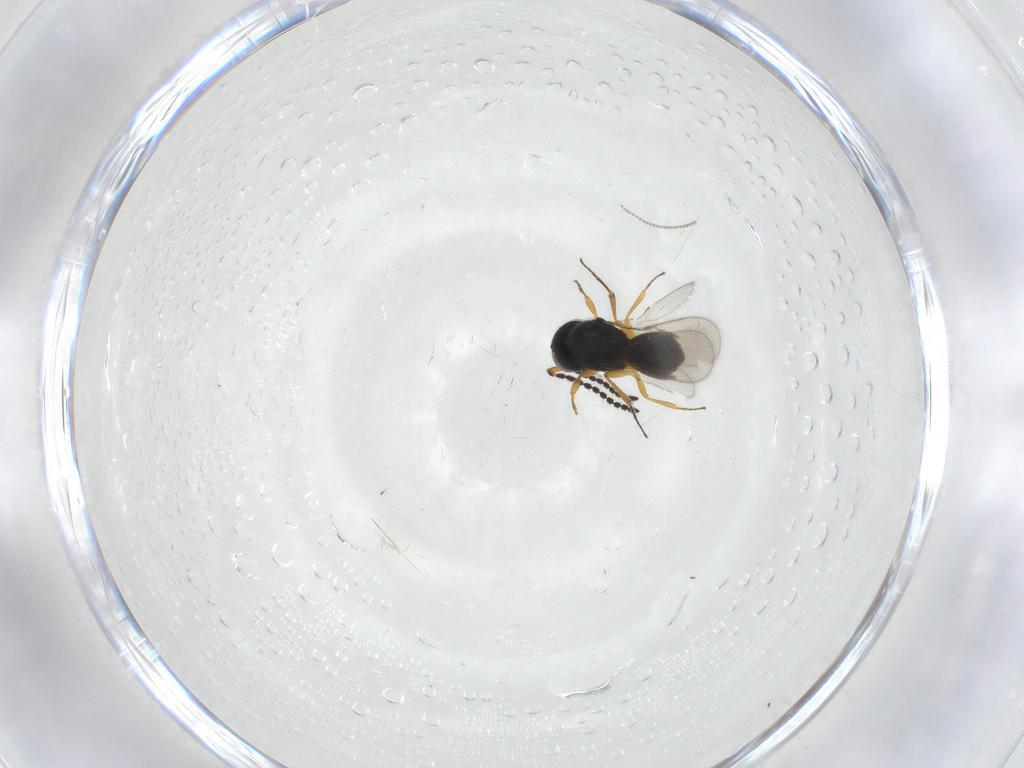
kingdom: Animalia
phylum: Arthropoda
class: Insecta
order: Hymenoptera
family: Scelionidae
